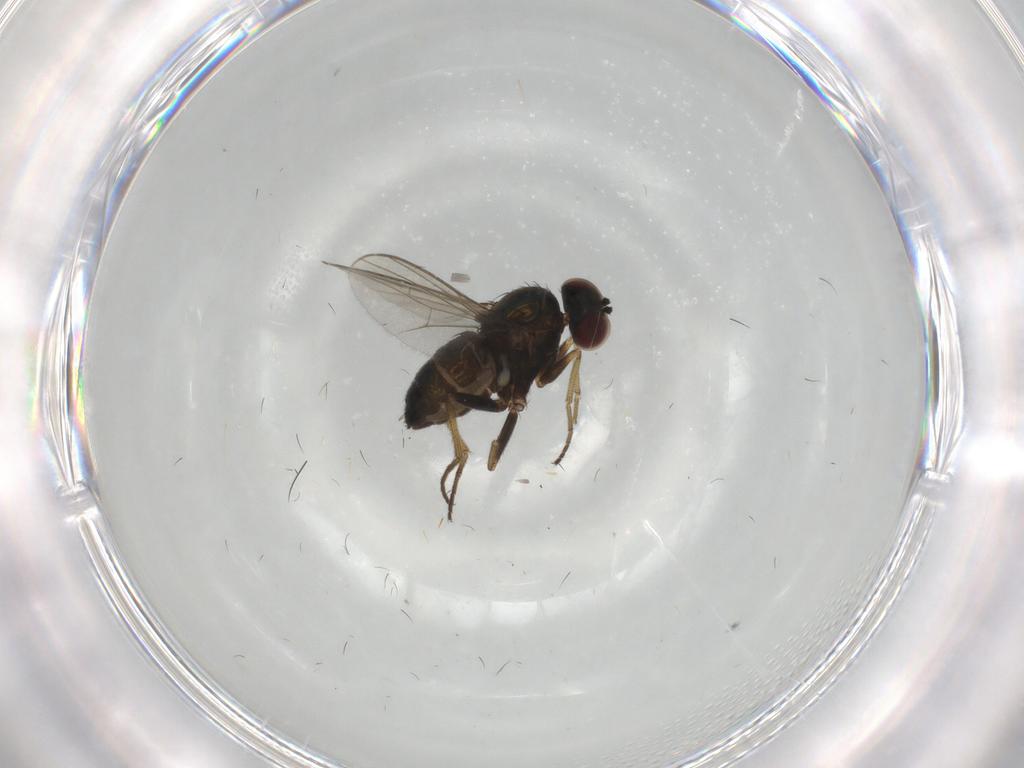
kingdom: Animalia
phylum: Arthropoda
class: Insecta
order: Diptera
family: Dolichopodidae
